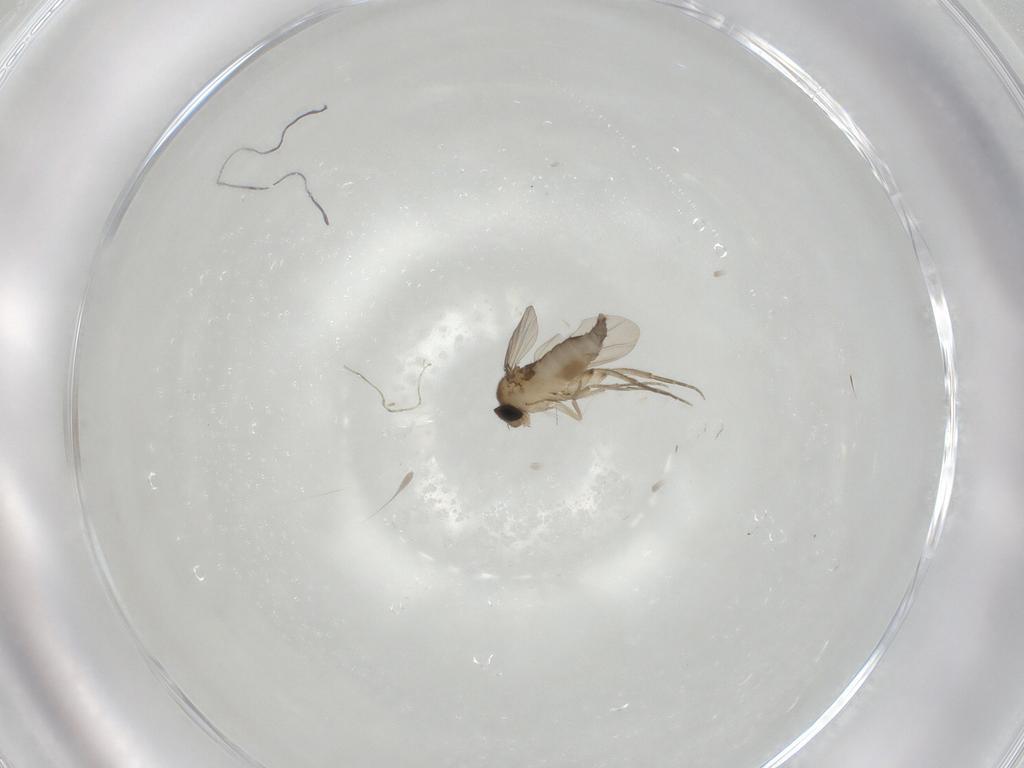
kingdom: Animalia
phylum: Arthropoda
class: Insecta
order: Diptera
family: Phoridae
